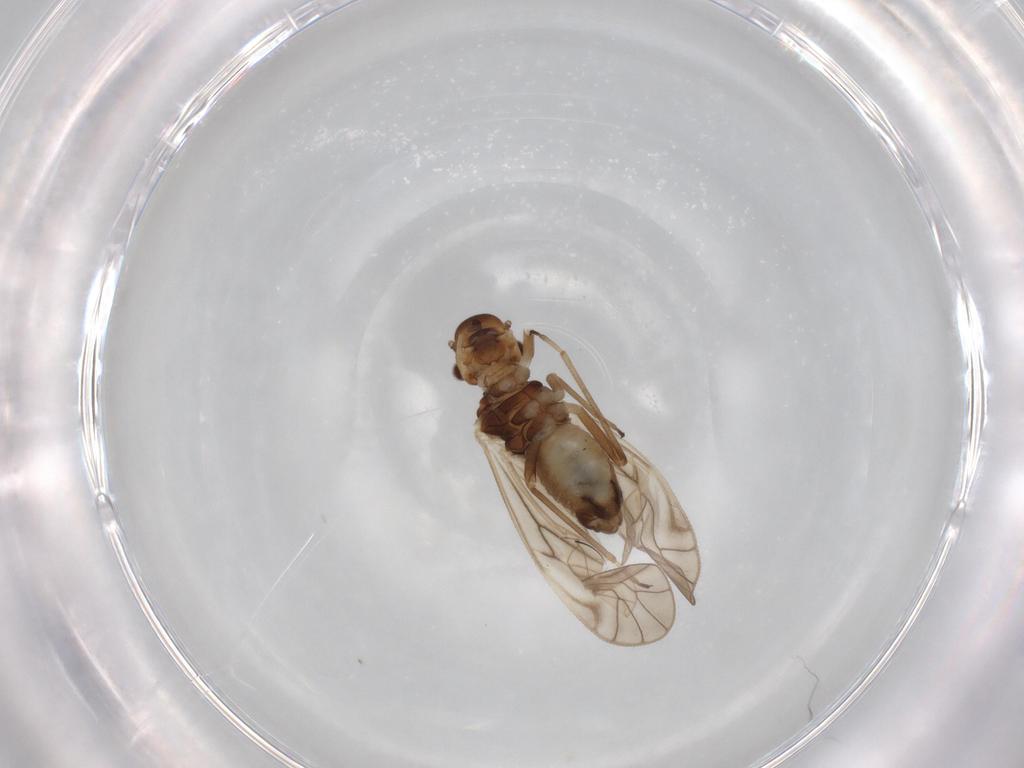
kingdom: Animalia
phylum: Arthropoda
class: Insecta
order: Psocodea
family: Philotarsidae
